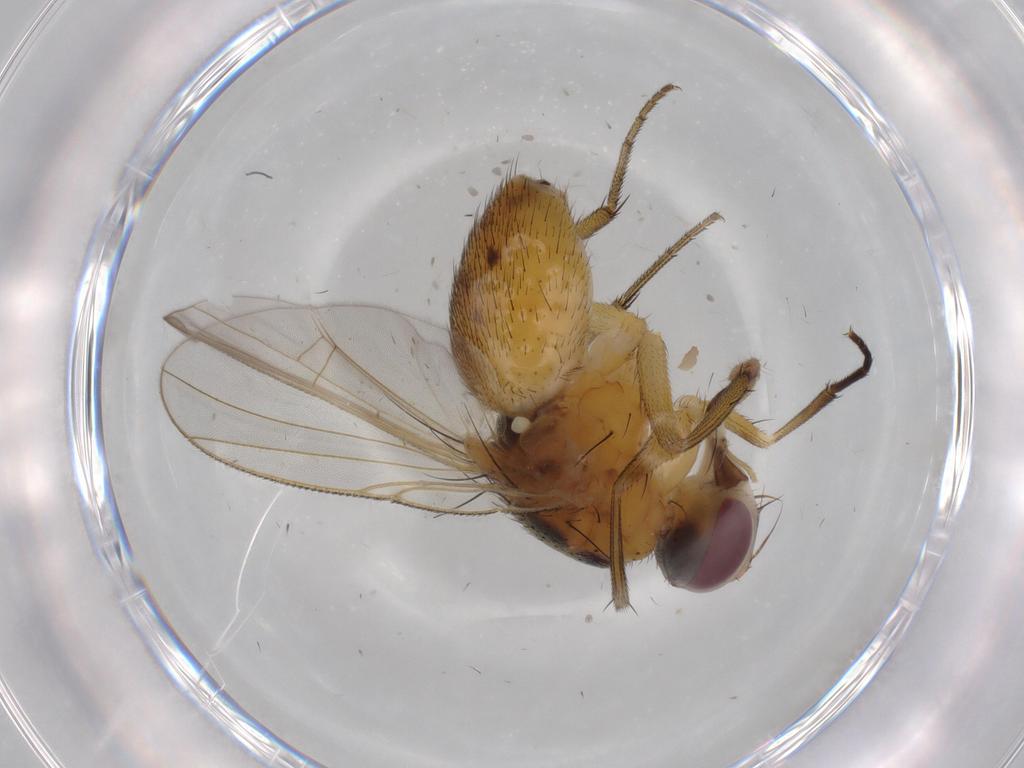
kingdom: Animalia
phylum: Arthropoda
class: Insecta
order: Diptera
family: Muscidae
